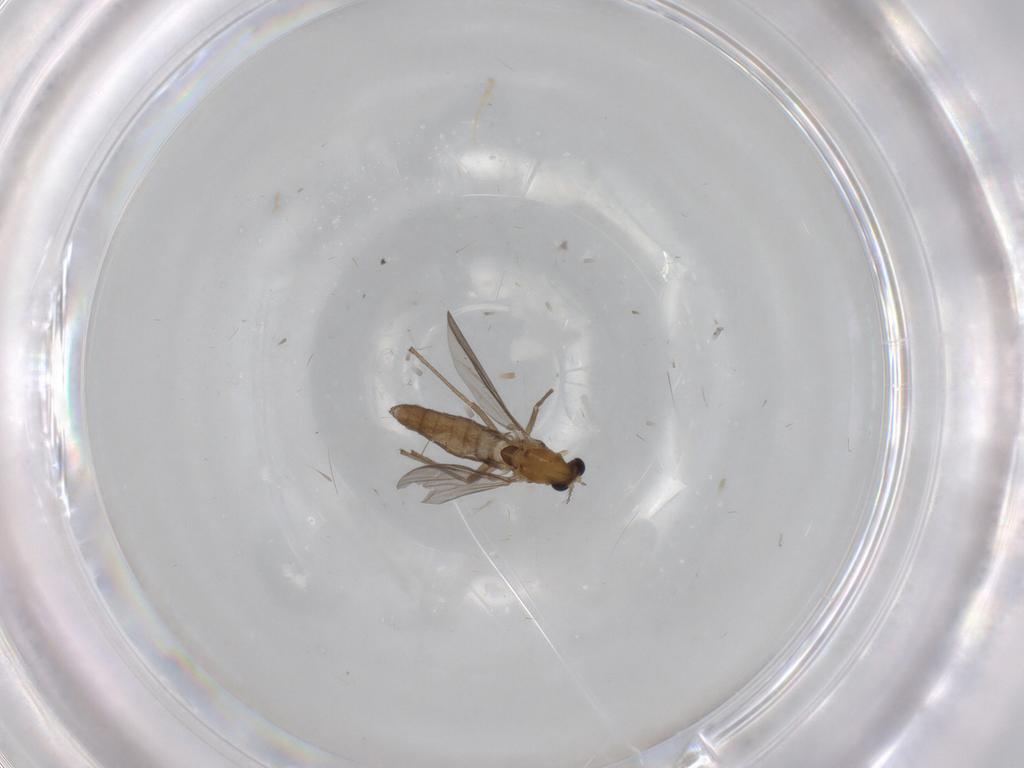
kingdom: Animalia
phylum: Arthropoda
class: Insecta
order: Diptera
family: Chironomidae
